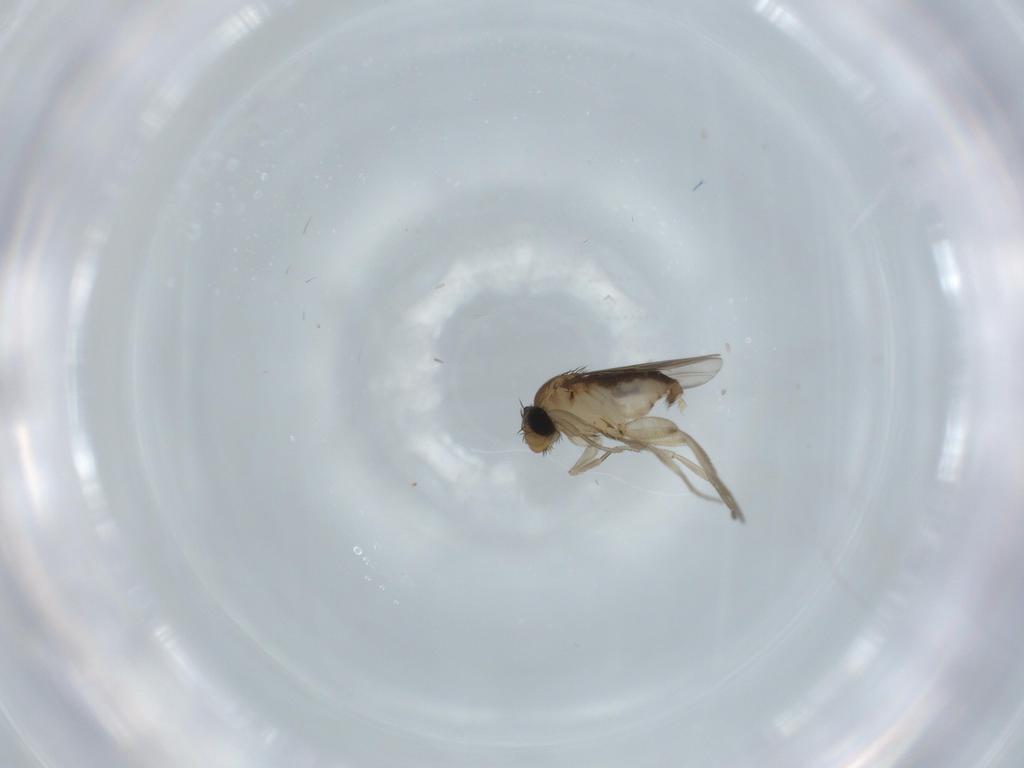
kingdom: Animalia
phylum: Arthropoda
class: Insecta
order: Diptera
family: Phoridae
